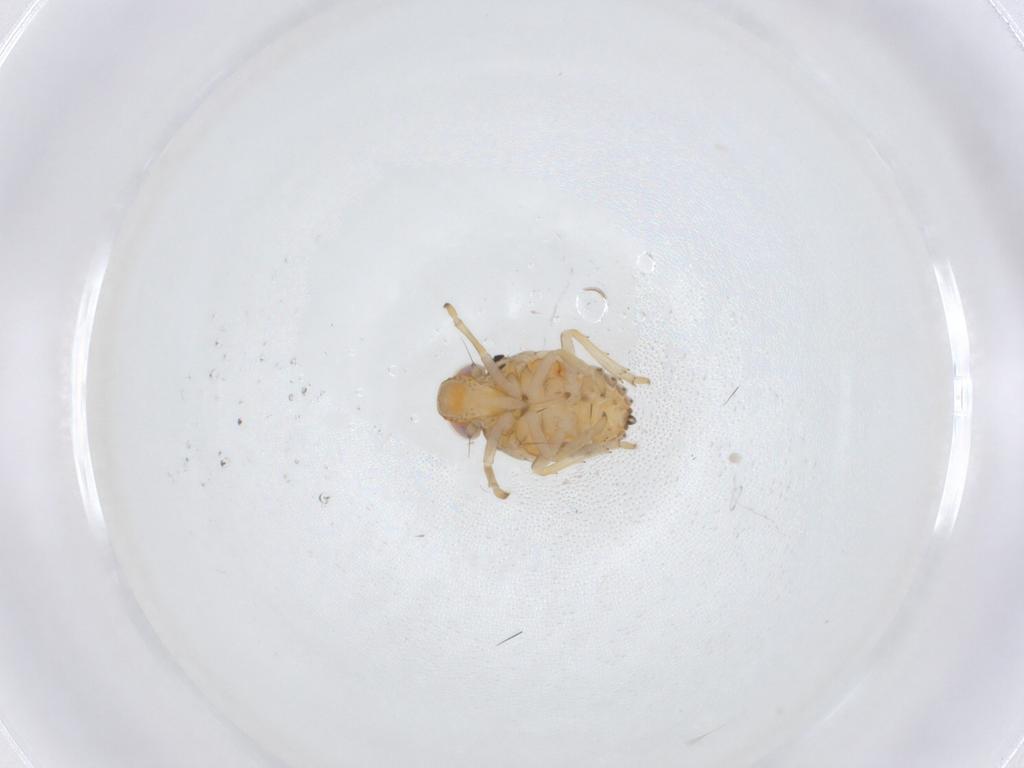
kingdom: Animalia
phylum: Arthropoda
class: Insecta
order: Hemiptera
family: Issidae
